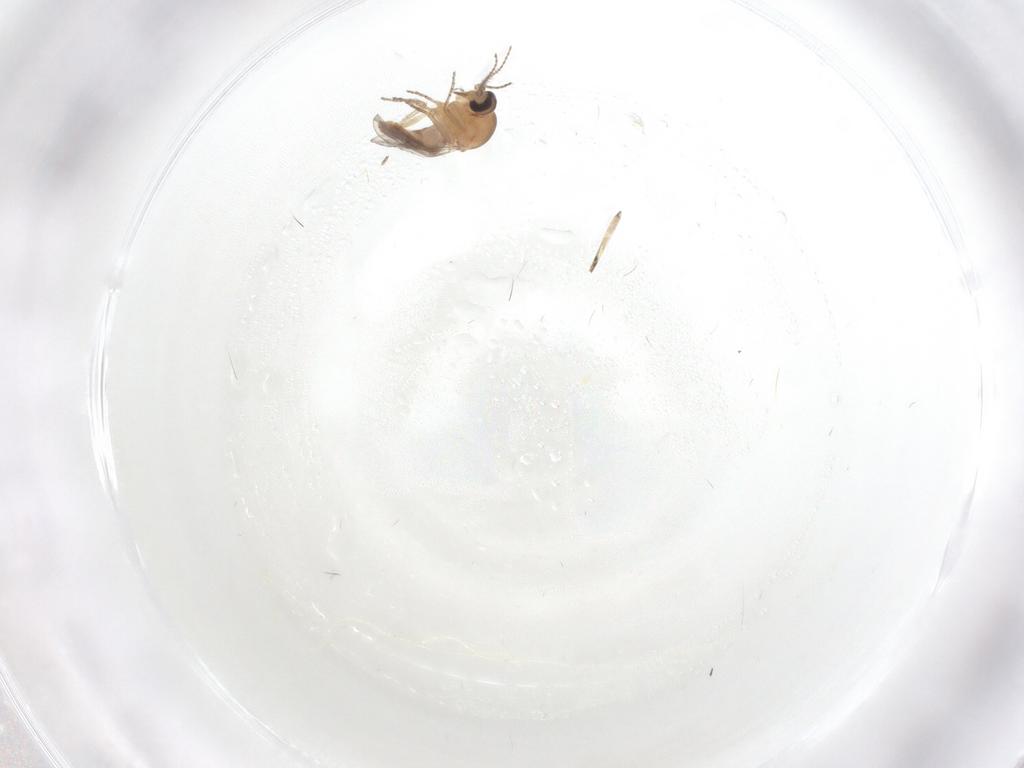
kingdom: Animalia
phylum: Arthropoda
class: Insecta
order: Diptera
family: Ceratopogonidae
